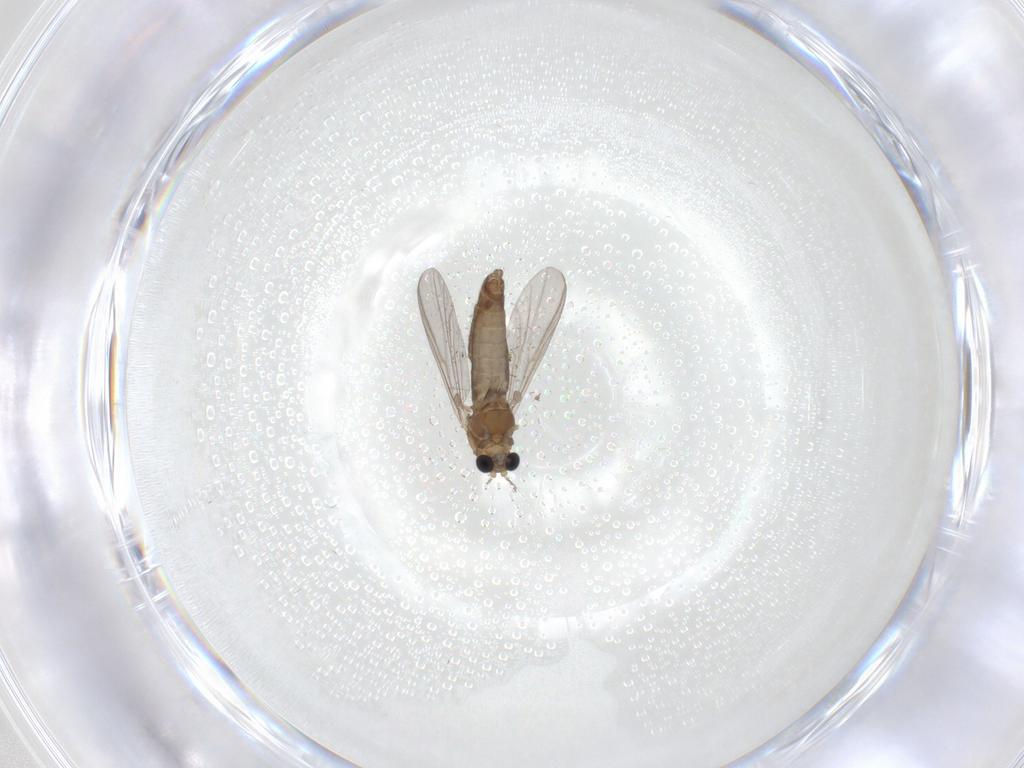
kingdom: Animalia
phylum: Arthropoda
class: Insecta
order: Diptera
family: Chironomidae
